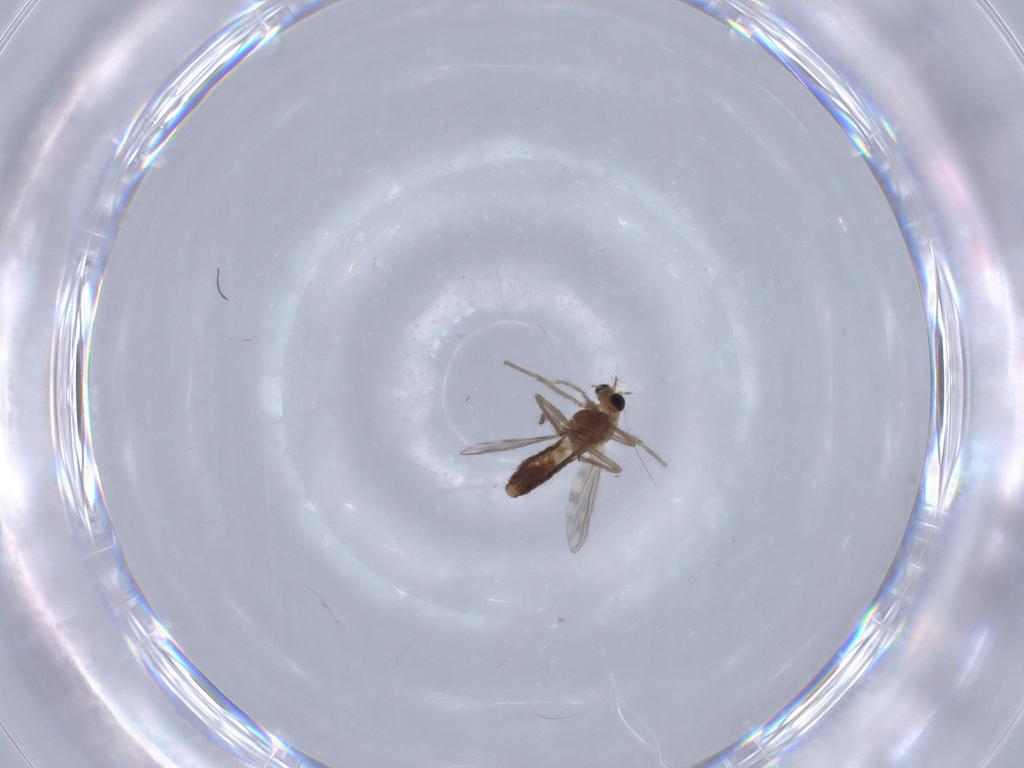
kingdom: Animalia
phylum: Arthropoda
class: Insecta
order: Diptera
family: Chironomidae
